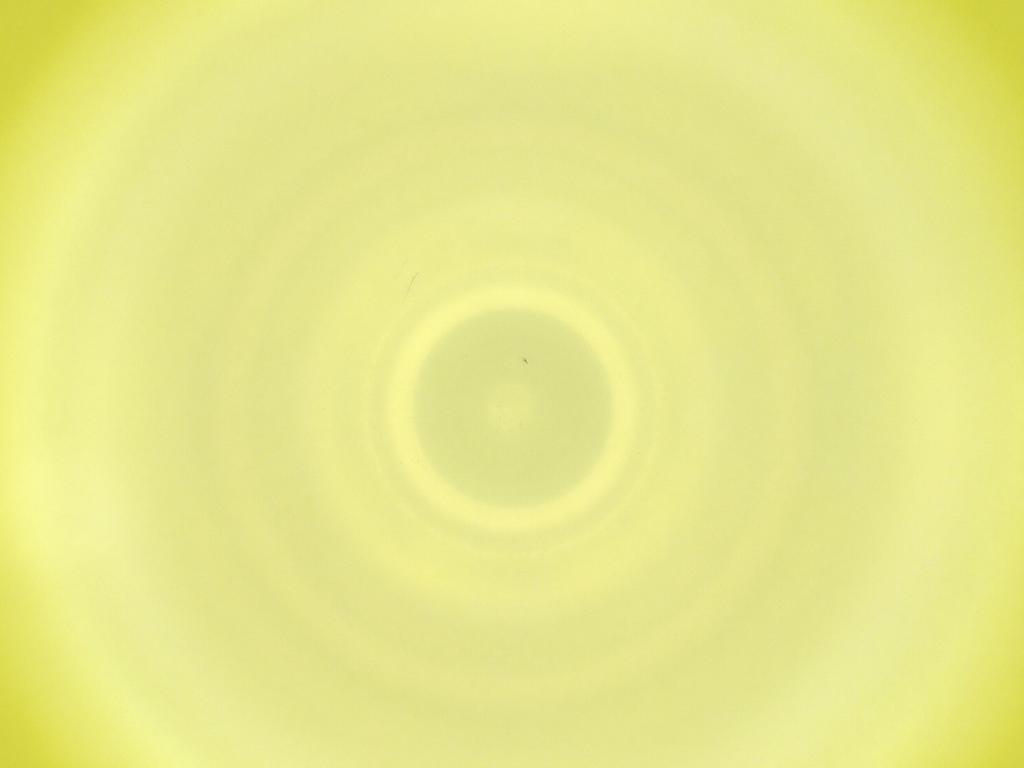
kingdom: Animalia
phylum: Arthropoda
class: Insecta
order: Diptera
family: Cecidomyiidae
